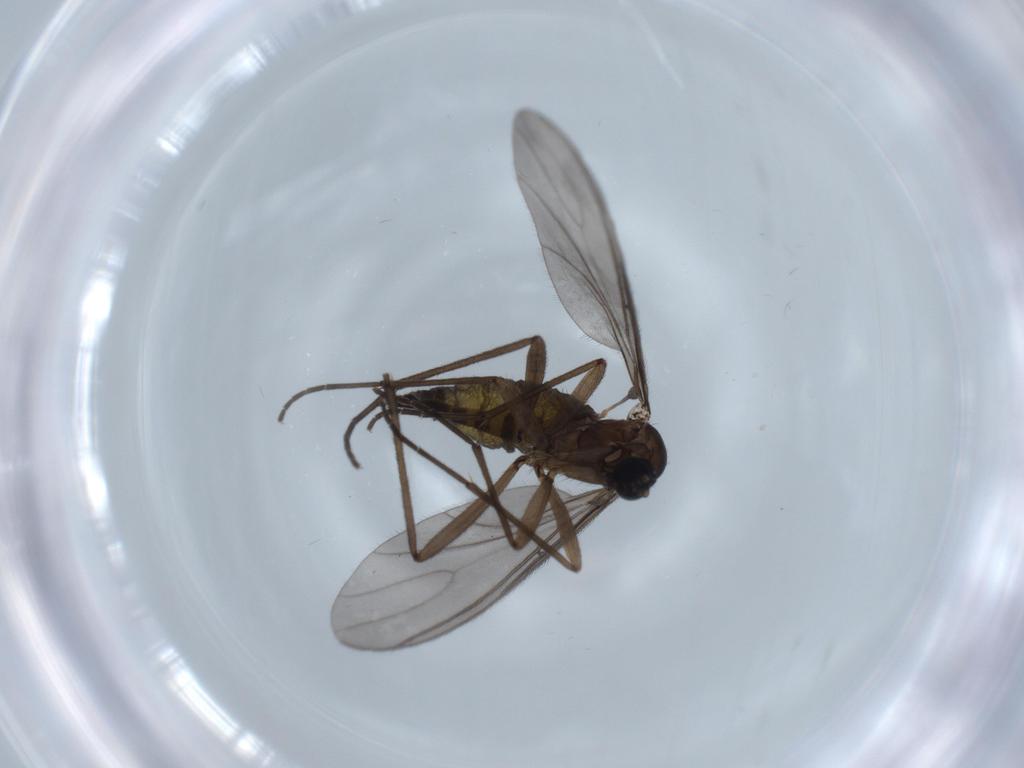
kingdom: Animalia
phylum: Arthropoda
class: Insecta
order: Diptera
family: Sciaridae
